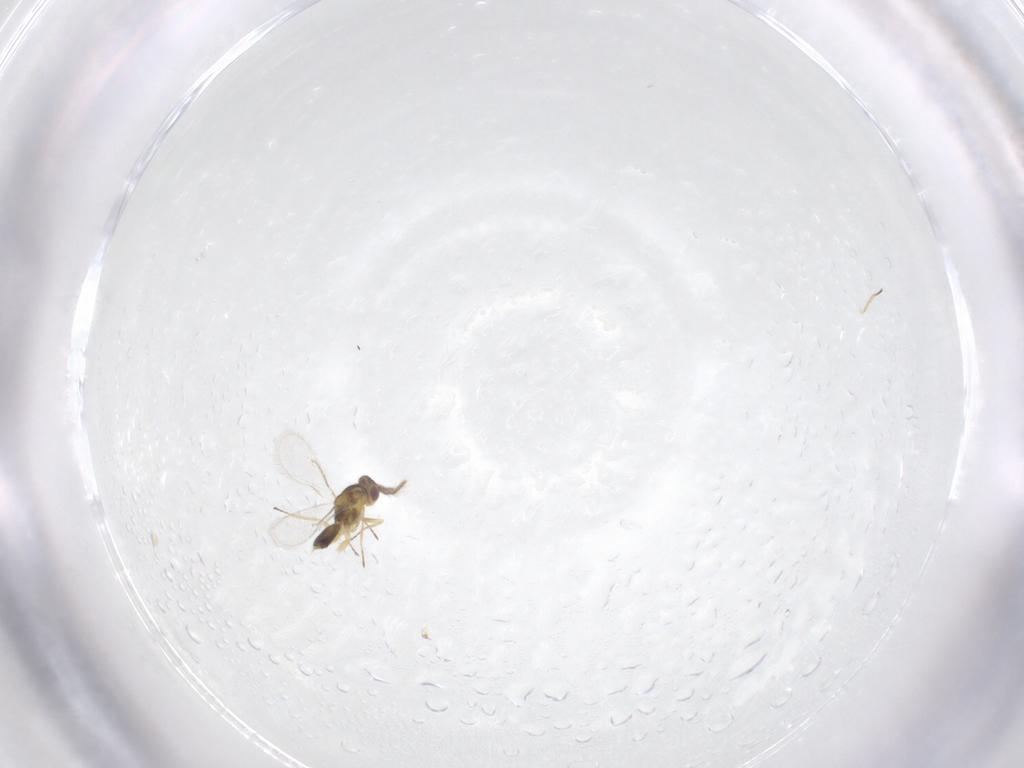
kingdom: Animalia
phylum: Arthropoda
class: Insecta
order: Hymenoptera
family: Eulophidae
